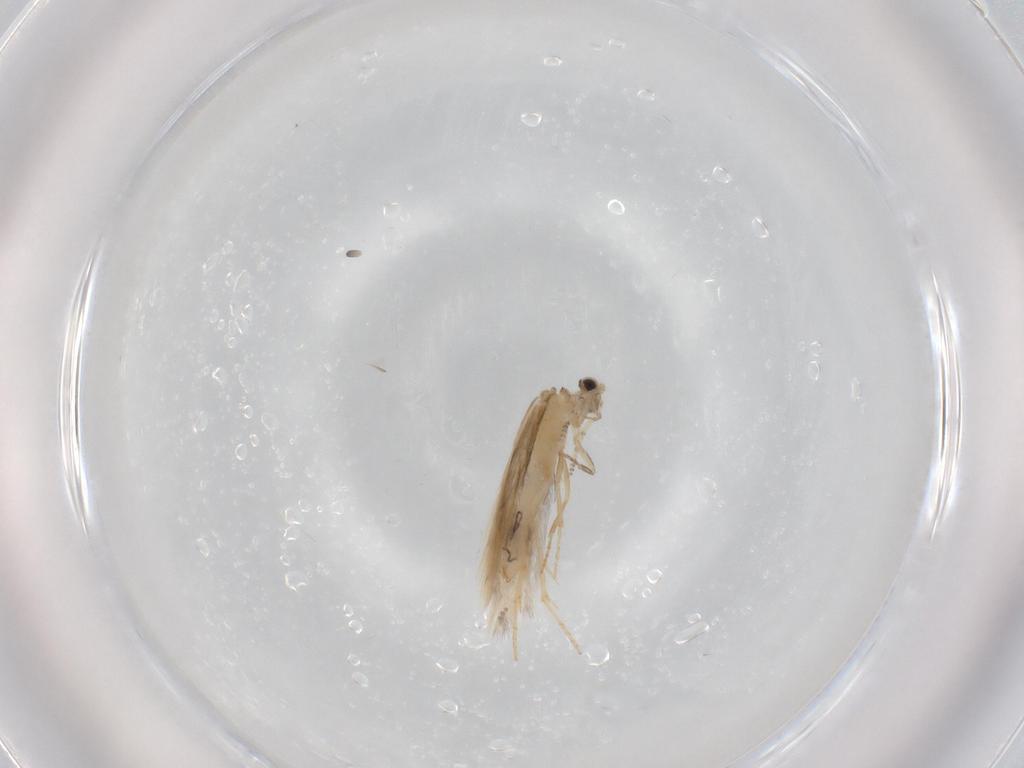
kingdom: Animalia
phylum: Arthropoda
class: Insecta
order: Trichoptera
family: Hydroptilidae
